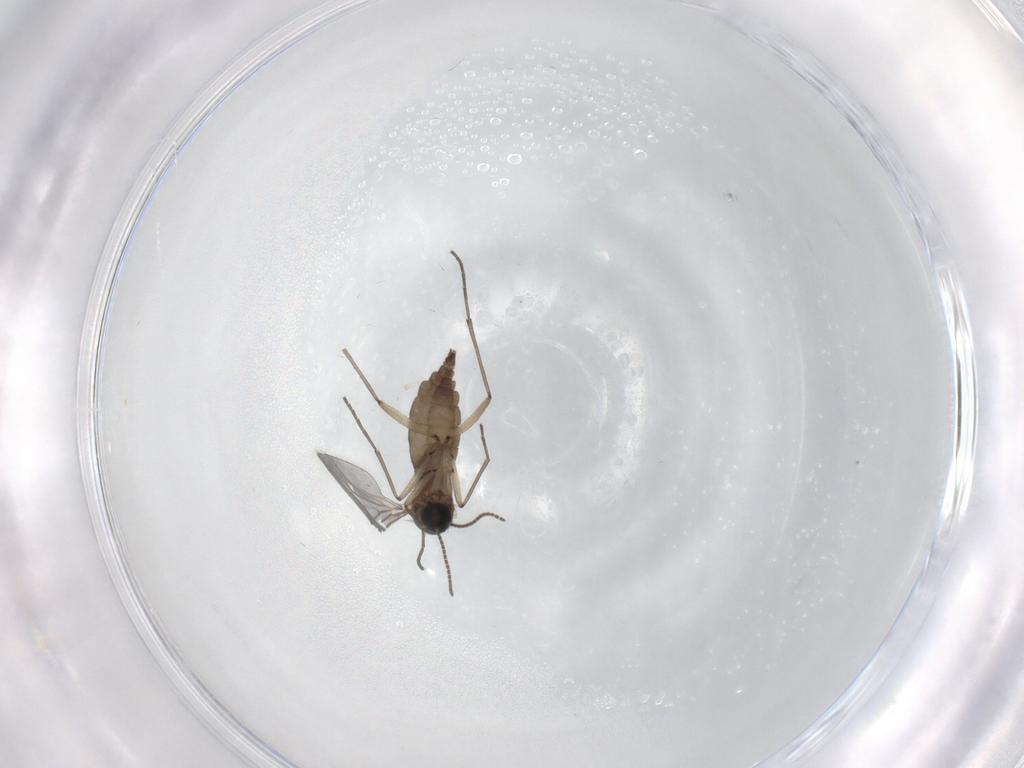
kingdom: Animalia
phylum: Arthropoda
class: Insecta
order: Diptera
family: Sciaridae
